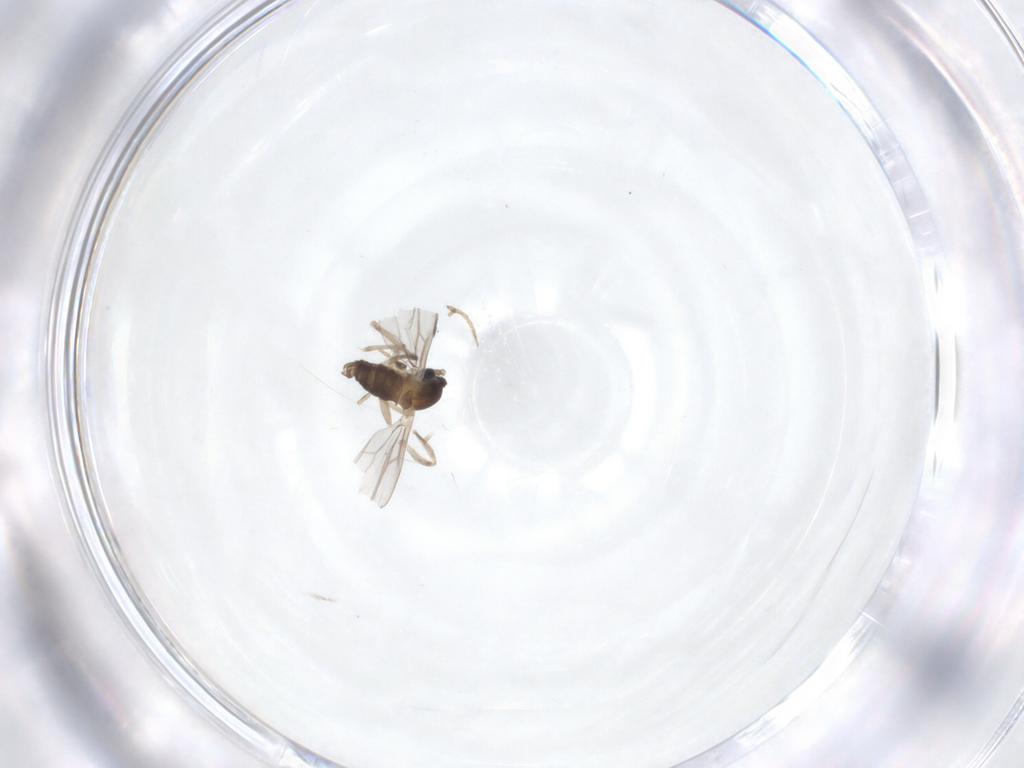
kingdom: Animalia
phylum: Arthropoda
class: Insecta
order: Diptera
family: Cecidomyiidae
